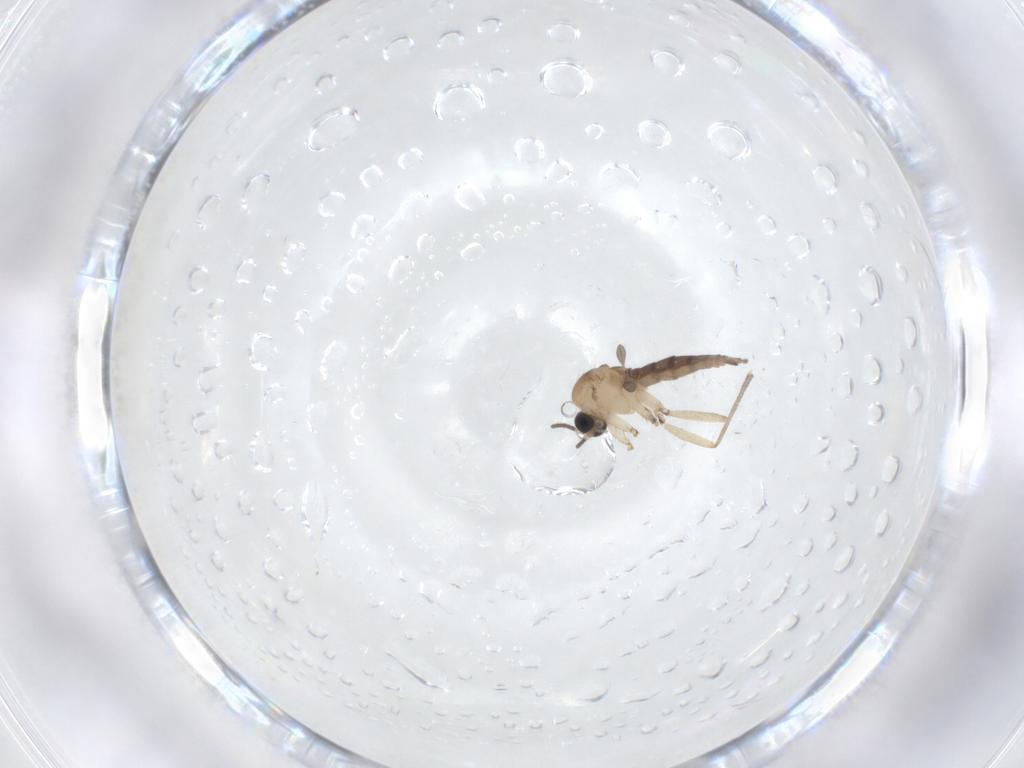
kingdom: Animalia
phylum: Arthropoda
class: Insecta
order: Diptera
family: Sciaridae
